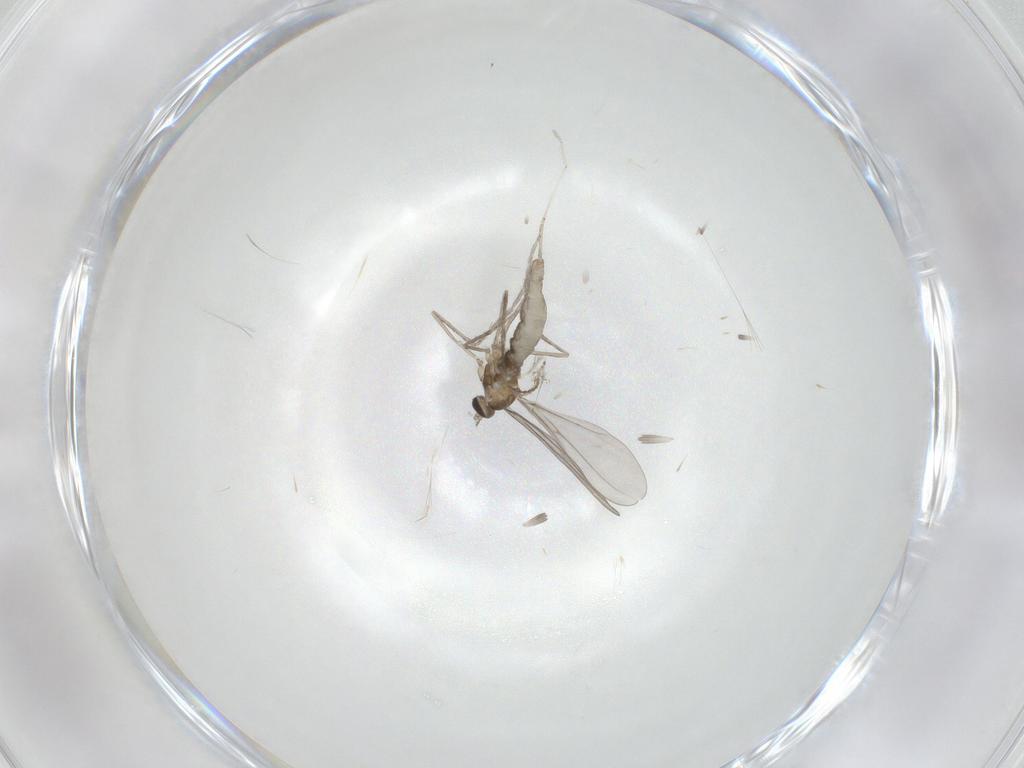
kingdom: Animalia
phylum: Arthropoda
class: Insecta
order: Diptera
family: Cecidomyiidae
